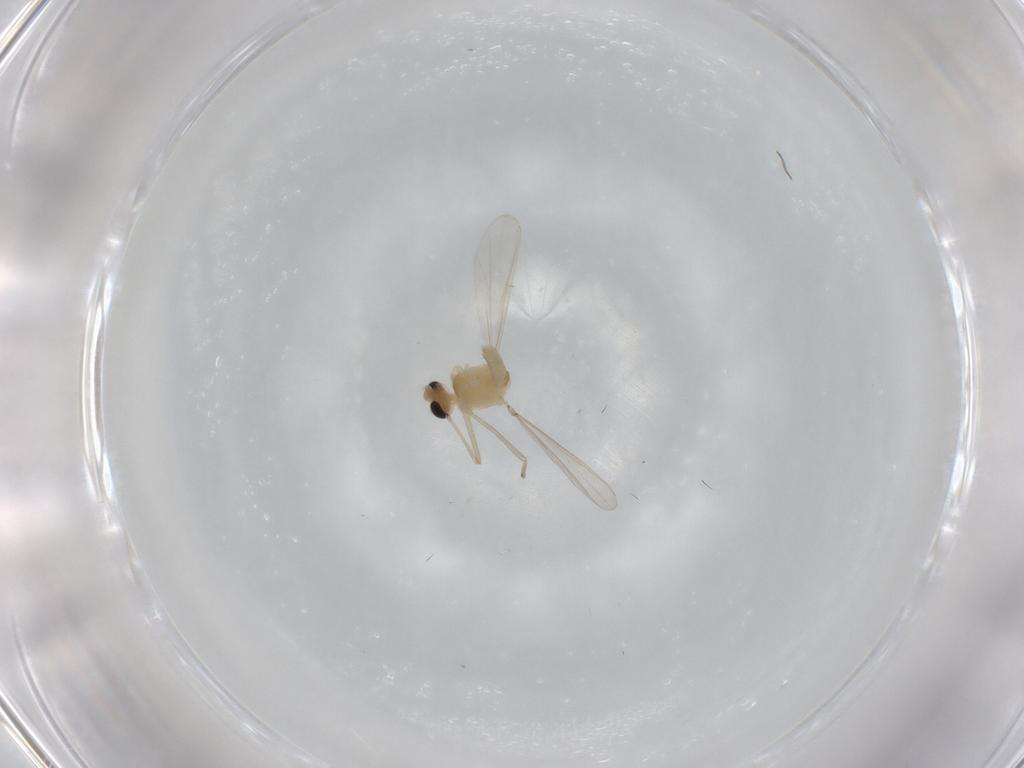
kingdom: Animalia
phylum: Arthropoda
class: Insecta
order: Diptera
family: Chironomidae
